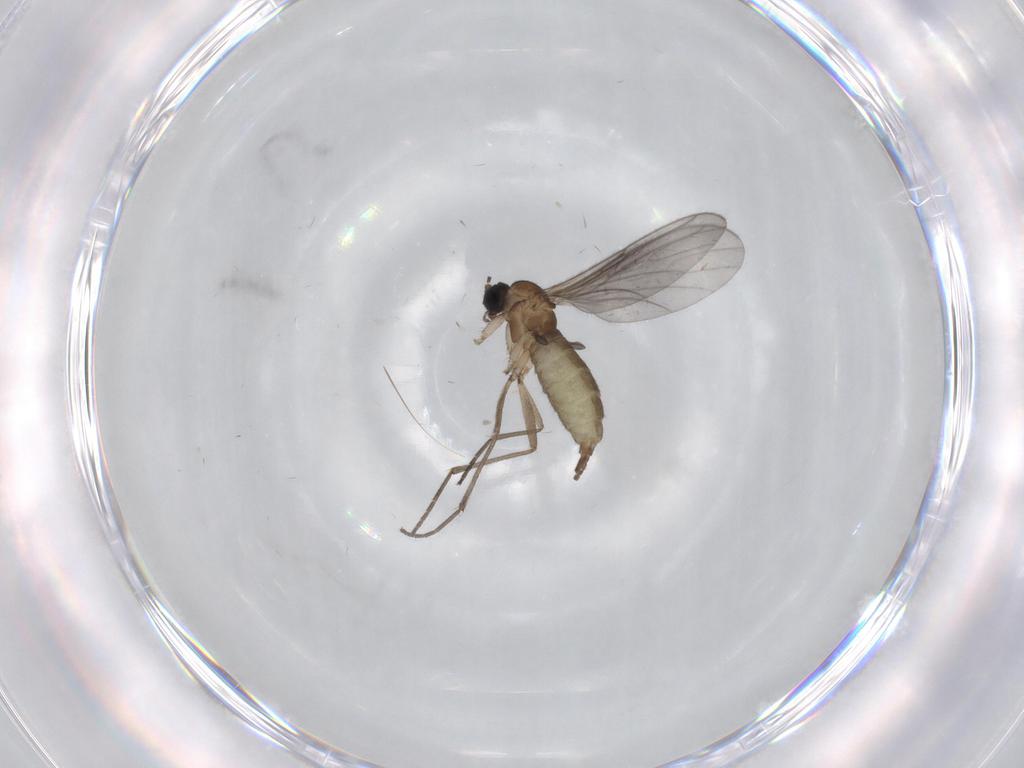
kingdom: Animalia
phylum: Arthropoda
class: Insecta
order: Diptera
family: Sciaridae
